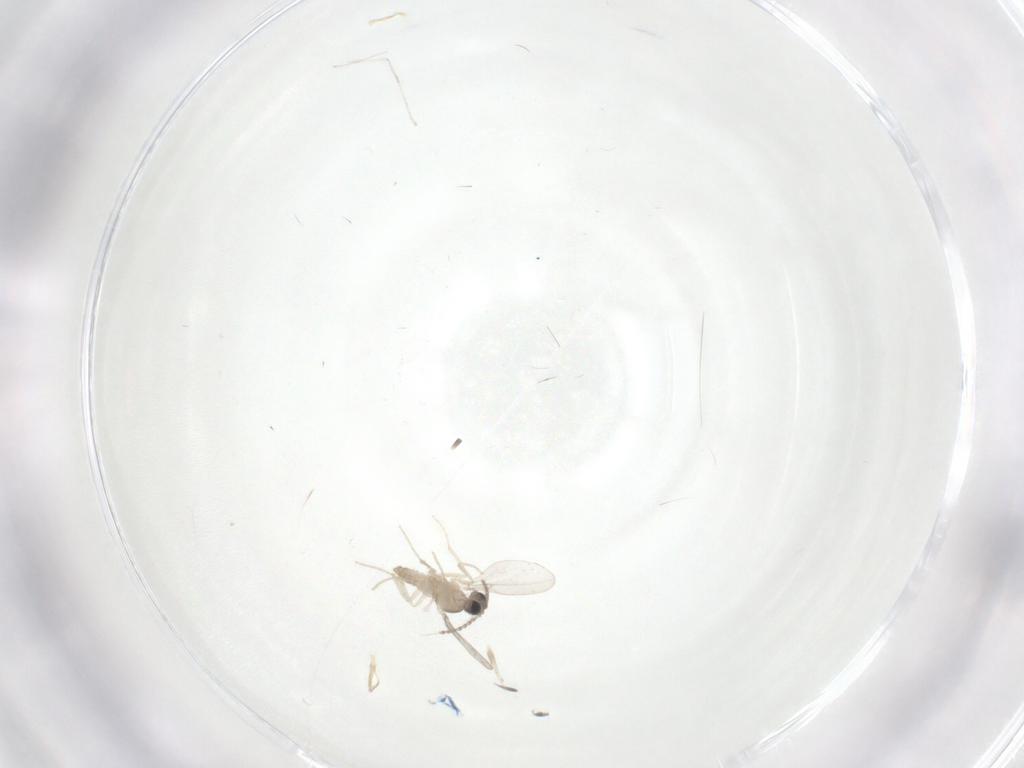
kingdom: Animalia
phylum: Arthropoda
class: Insecta
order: Diptera
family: Cecidomyiidae
